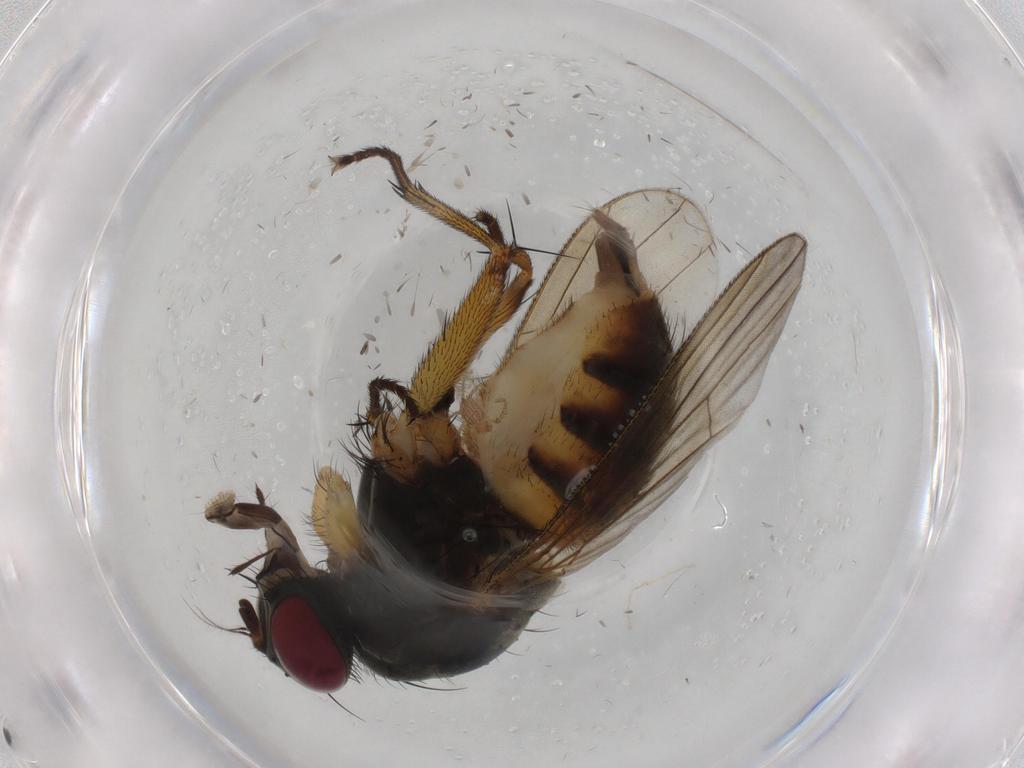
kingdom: Animalia
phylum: Arthropoda
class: Insecta
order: Diptera
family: Muscidae
